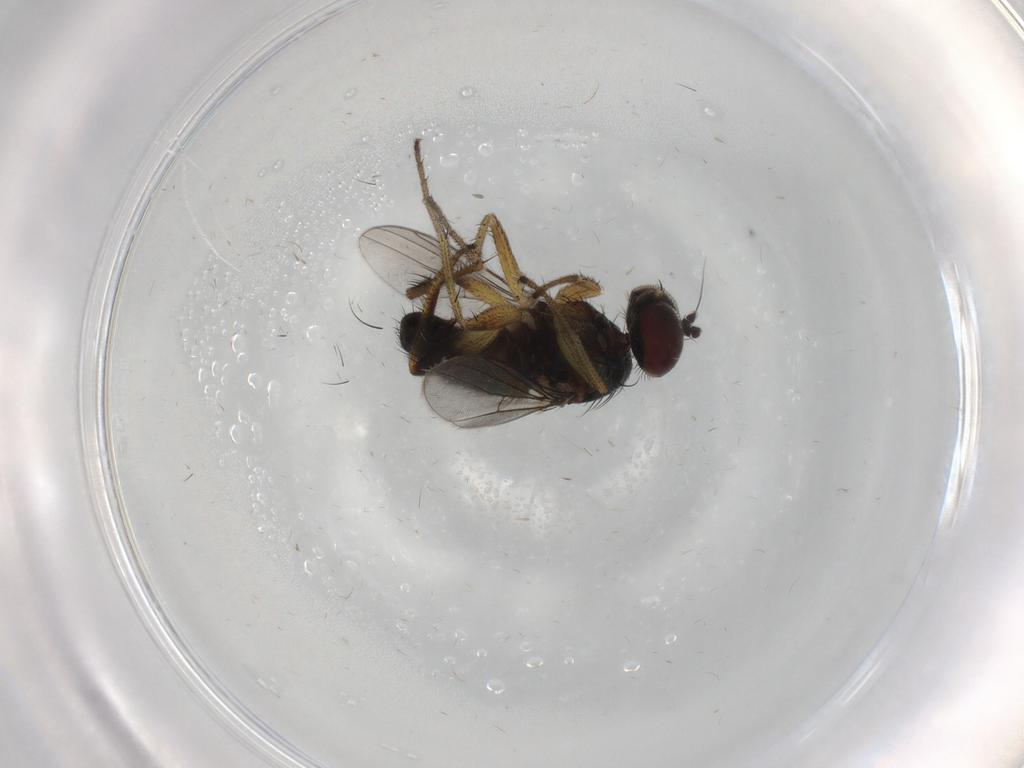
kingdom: Animalia
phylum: Arthropoda
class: Insecta
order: Diptera
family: Dolichopodidae
